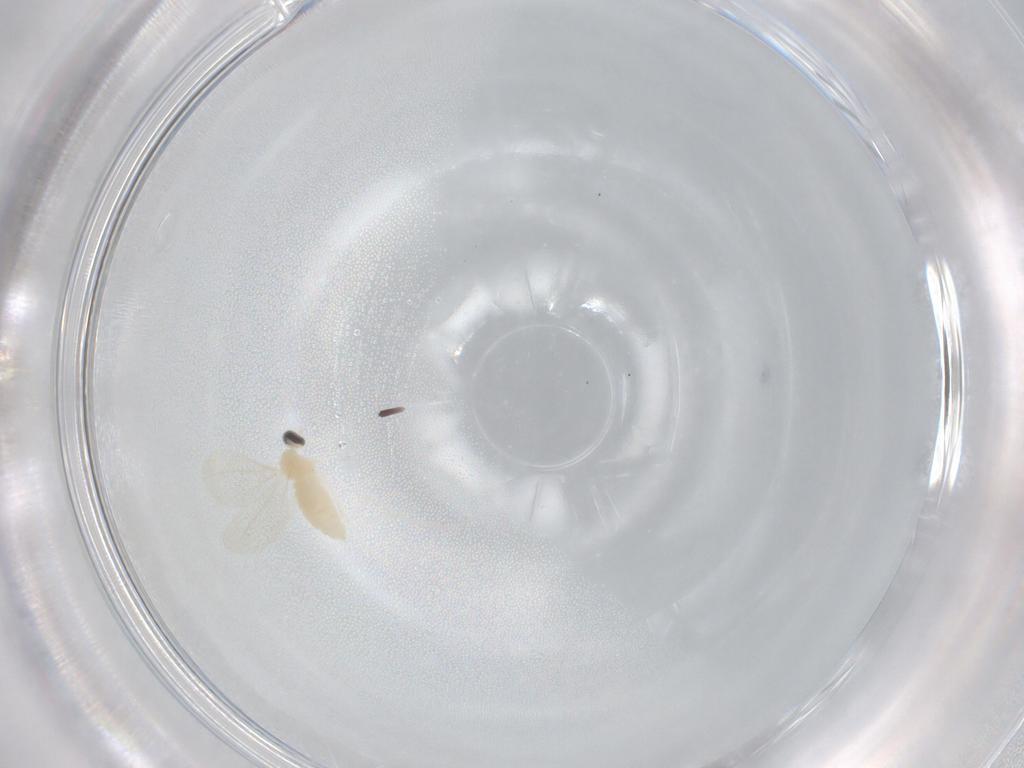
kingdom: Animalia
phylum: Arthropoda
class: Insecta
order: Diptera
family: Cecidomyiidae
